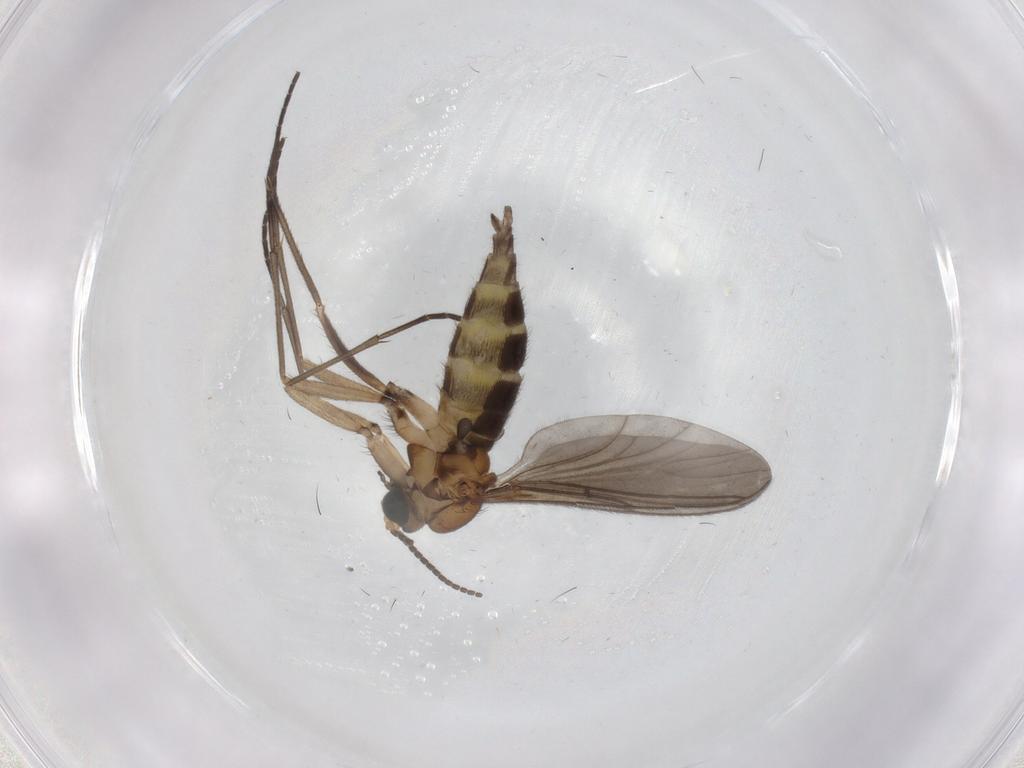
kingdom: Animalia
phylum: Arthropoda
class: Insecta
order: Diptera
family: Sciaridae
